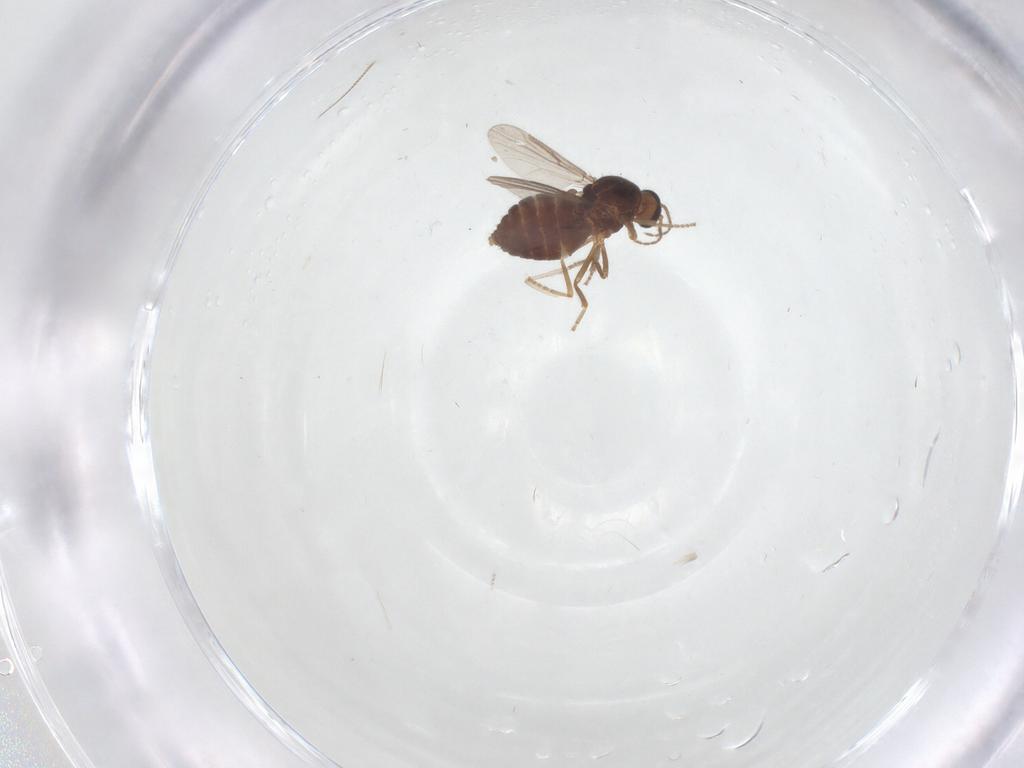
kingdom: Animalia
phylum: Arthropoda
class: Insecta
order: Diptera
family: Ceratopogonidae
